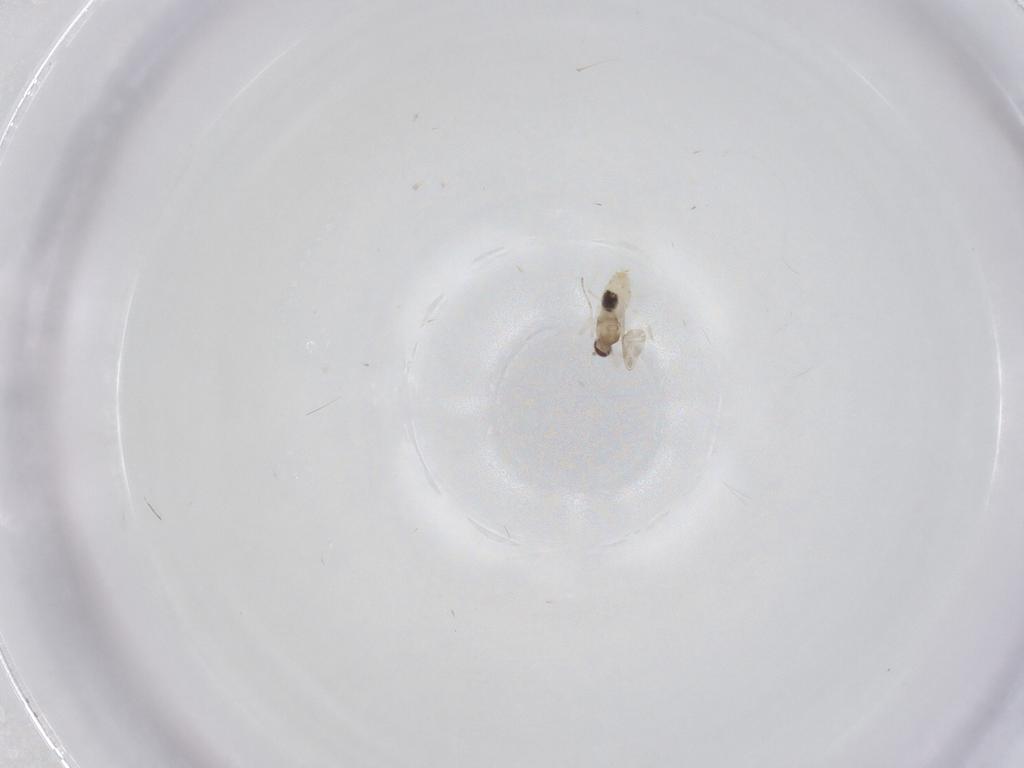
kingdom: Animalia
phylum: Arthropoda
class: Insecta
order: Diptera
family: Cecidomyiidae
